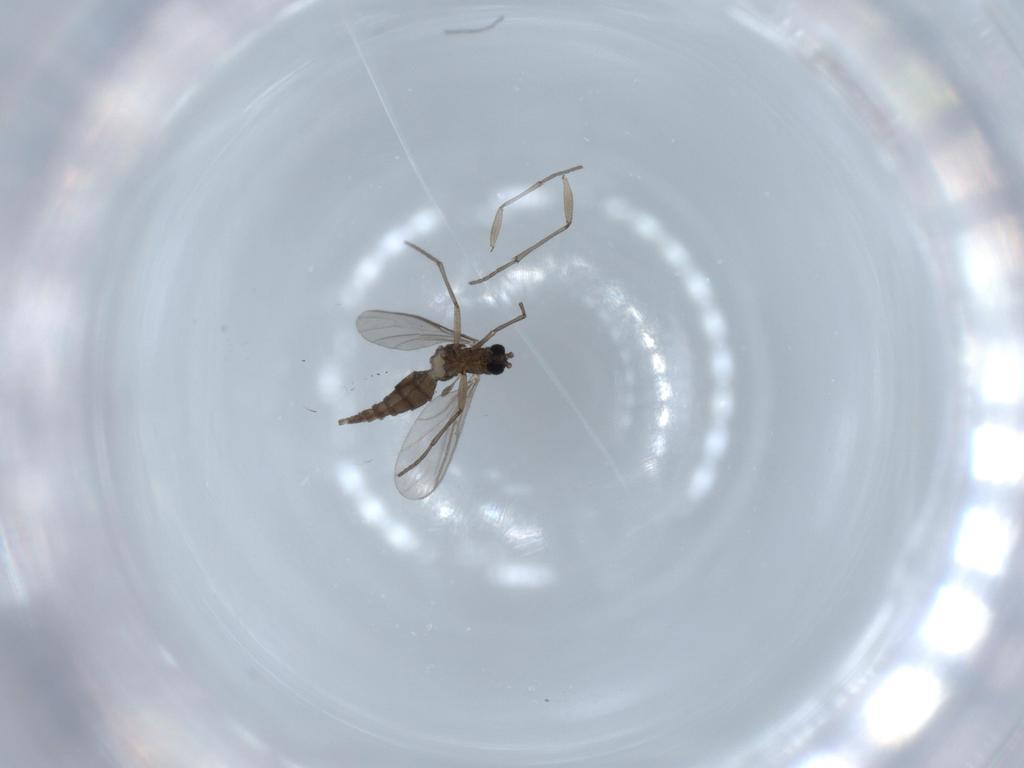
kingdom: Animalia
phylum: Arthropoda
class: Insecta
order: Diptera
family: Sciaridae
